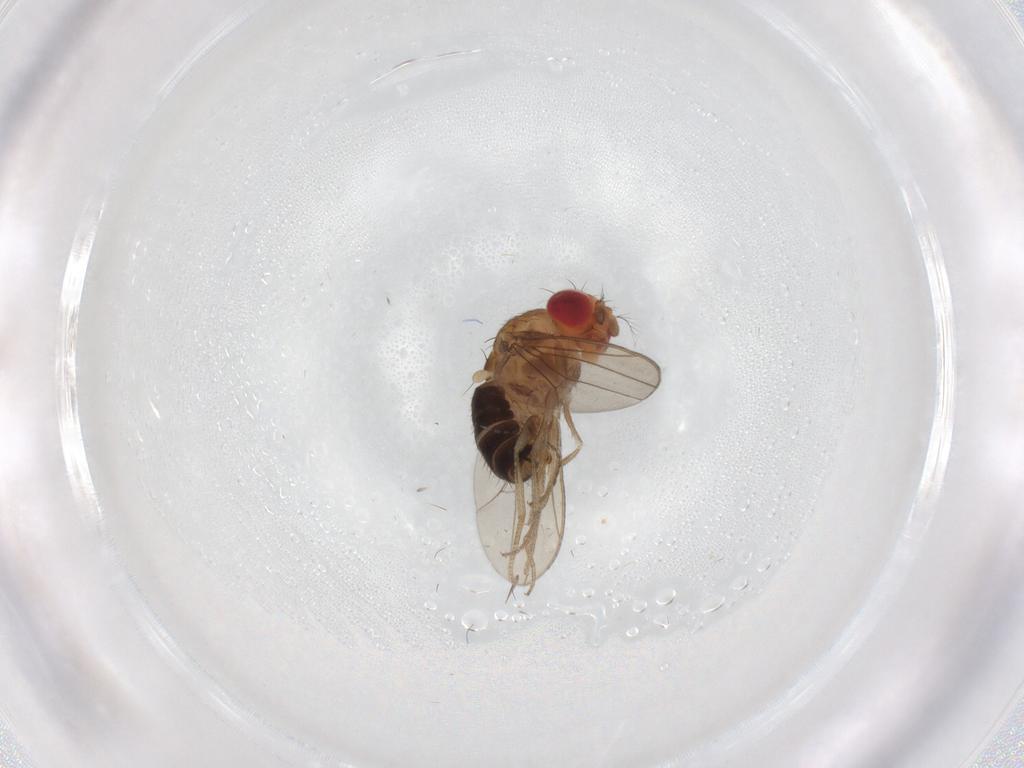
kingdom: Animalia
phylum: Arthropoda
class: Insecta
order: Diptera
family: Drosophilidae
